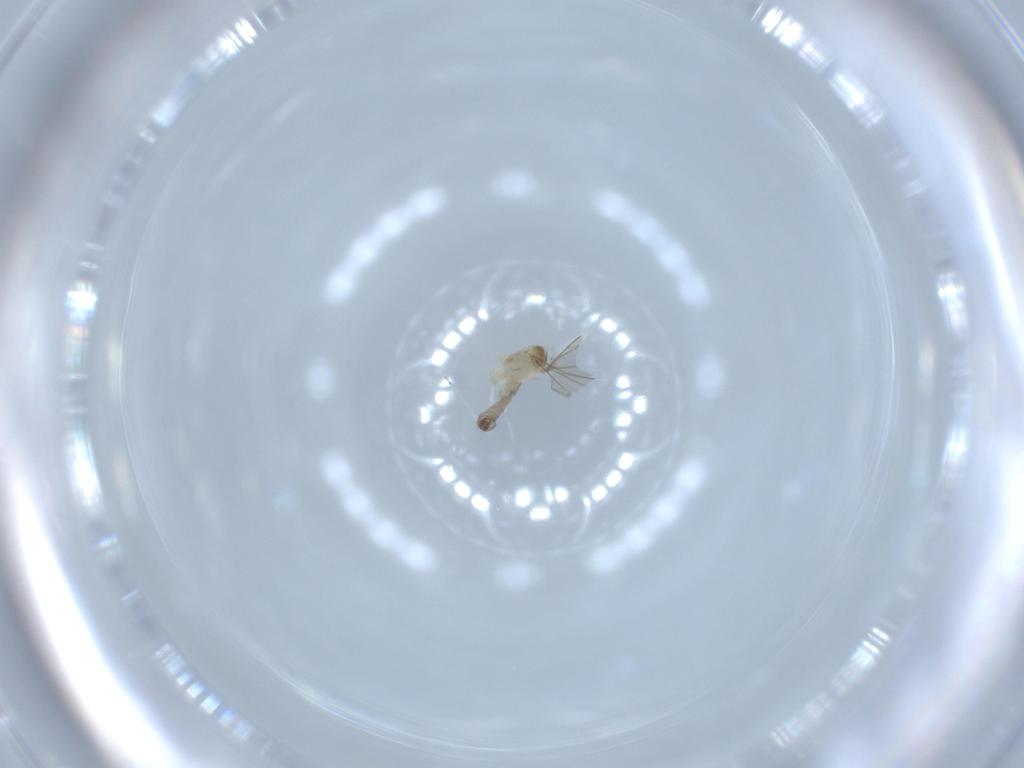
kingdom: Animalia
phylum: Arthropoda
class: Insecta
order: Diptera
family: Cecidomyiidae
